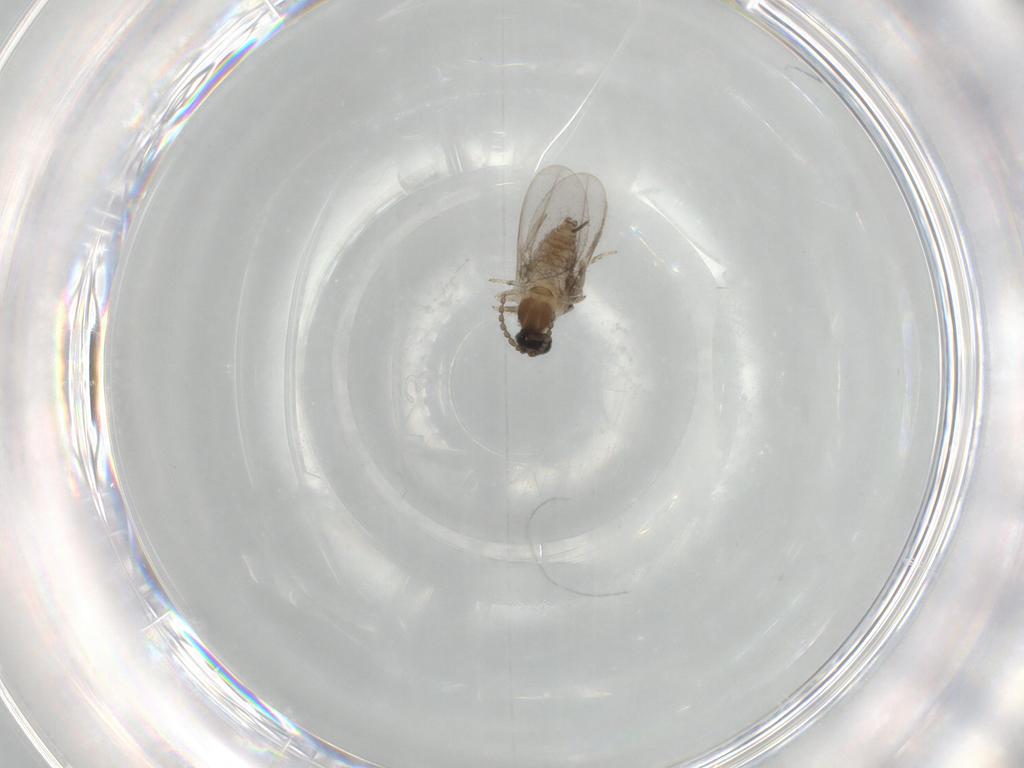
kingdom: Animalia
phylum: Arthropoda
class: Insecta
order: Diptera
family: Cecidomyiidae
